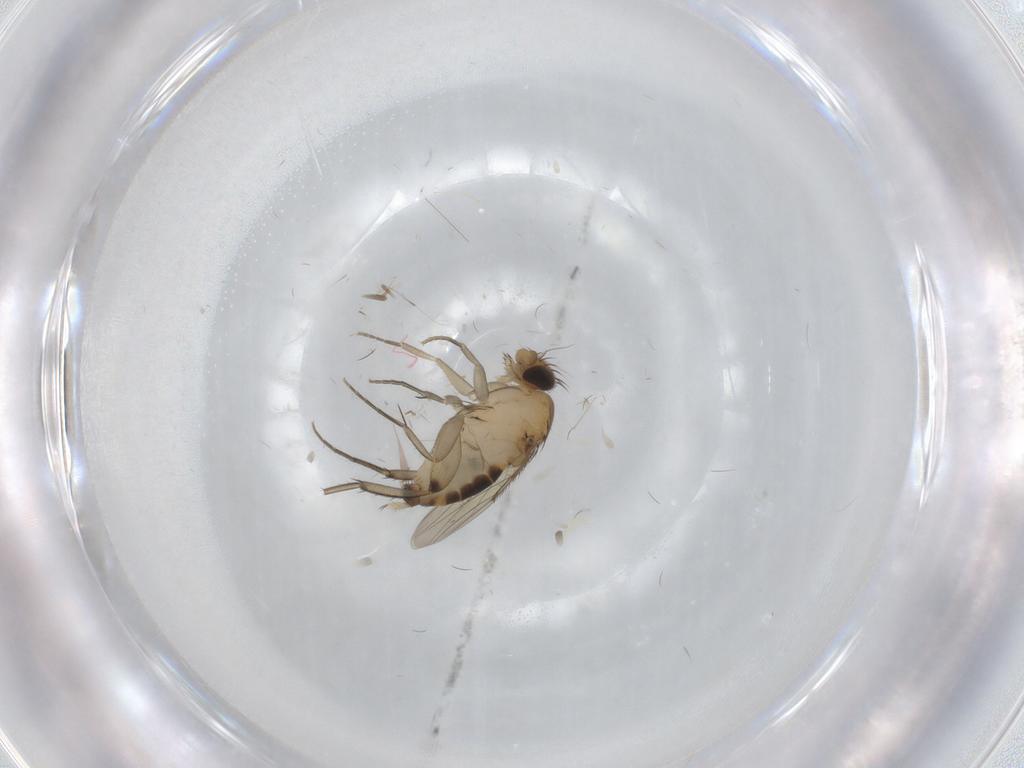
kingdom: Animalia
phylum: Arthropoda
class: Insecta
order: Diptera
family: Phoridae
